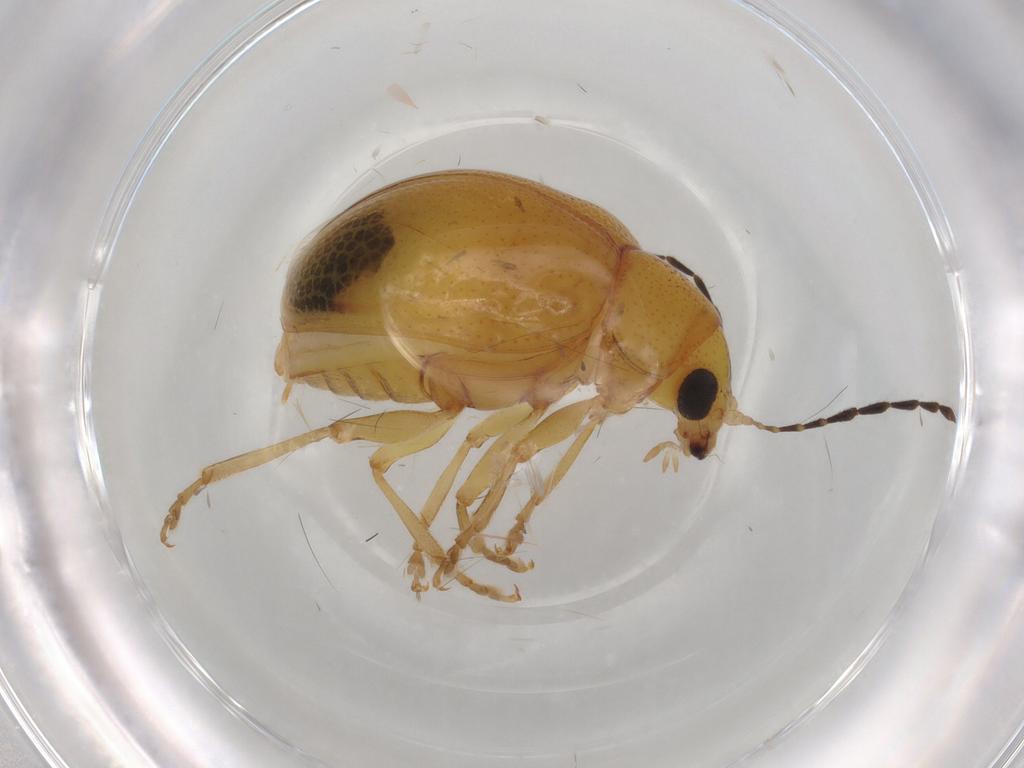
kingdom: Animalia
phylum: Arthropoda
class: Insecta
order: Coleoptera
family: Chrysomelidae
